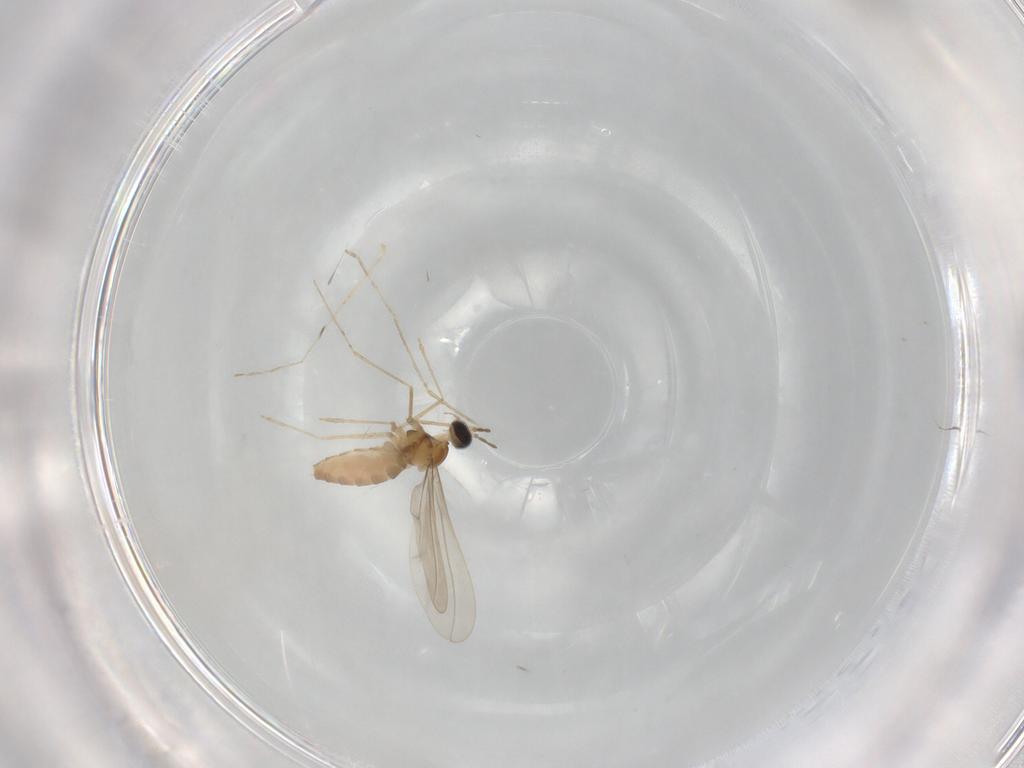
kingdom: Animalia
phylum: Arthropoda
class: Insecta
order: Diptera
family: Cecidomyiidae
